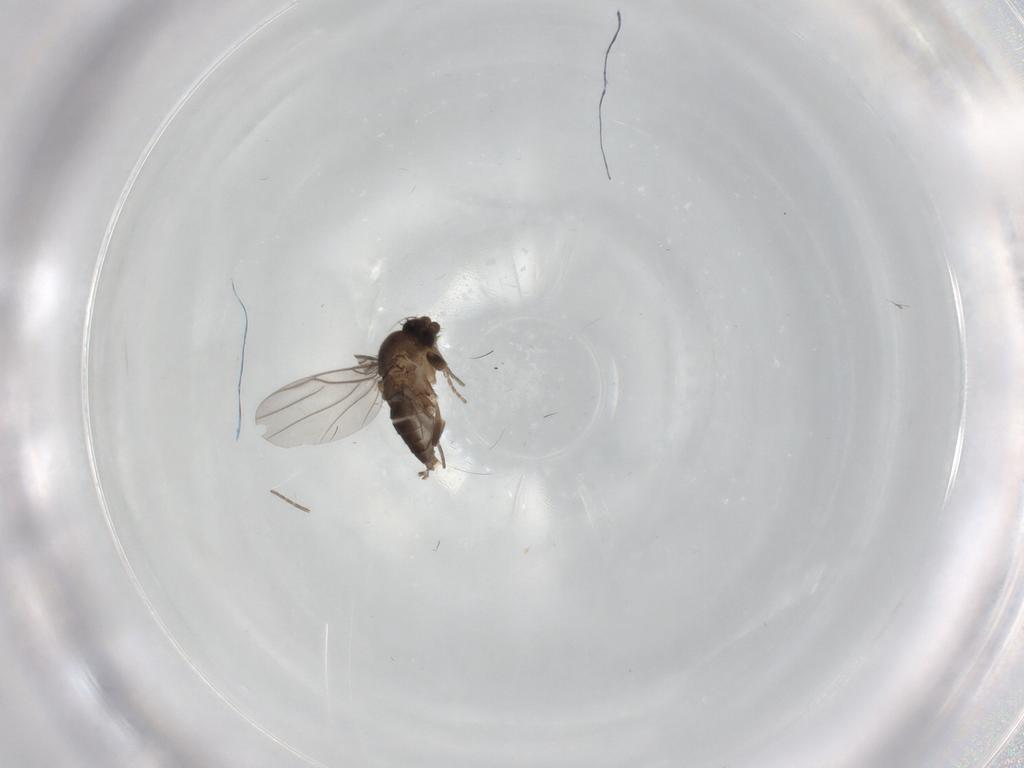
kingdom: Animalia
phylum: Arthropoda
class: Insecta
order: Diptera
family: Phoridae
